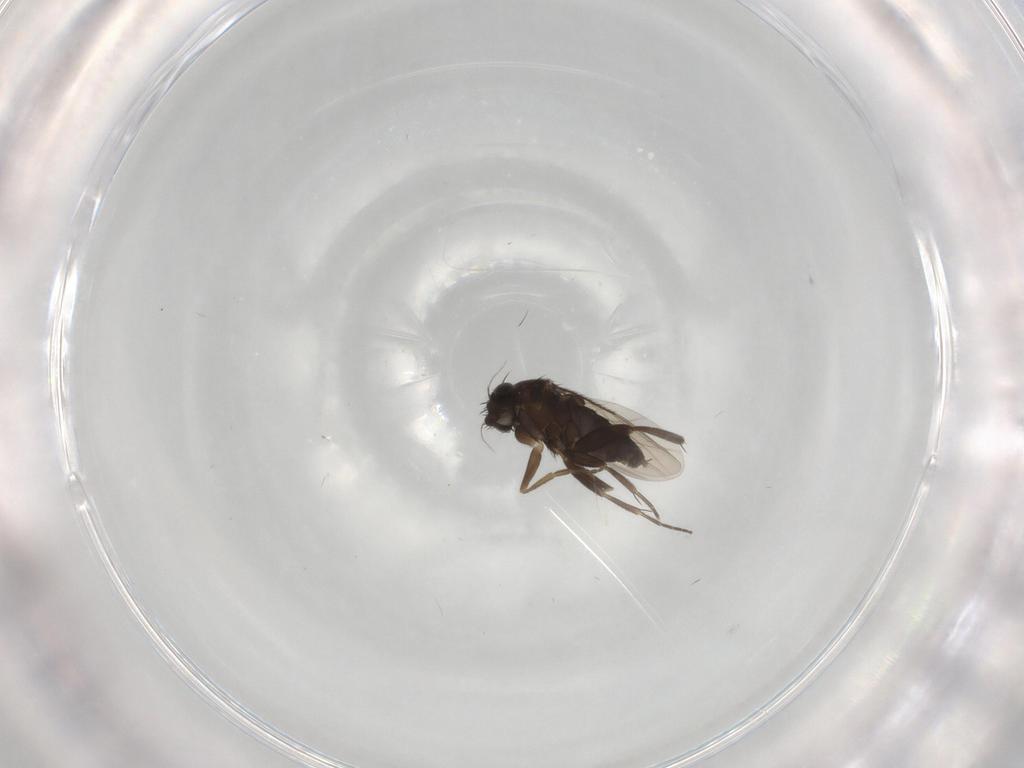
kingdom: Animalia
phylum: Arthropoda
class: Insecta
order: Diptera
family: Phoridae
